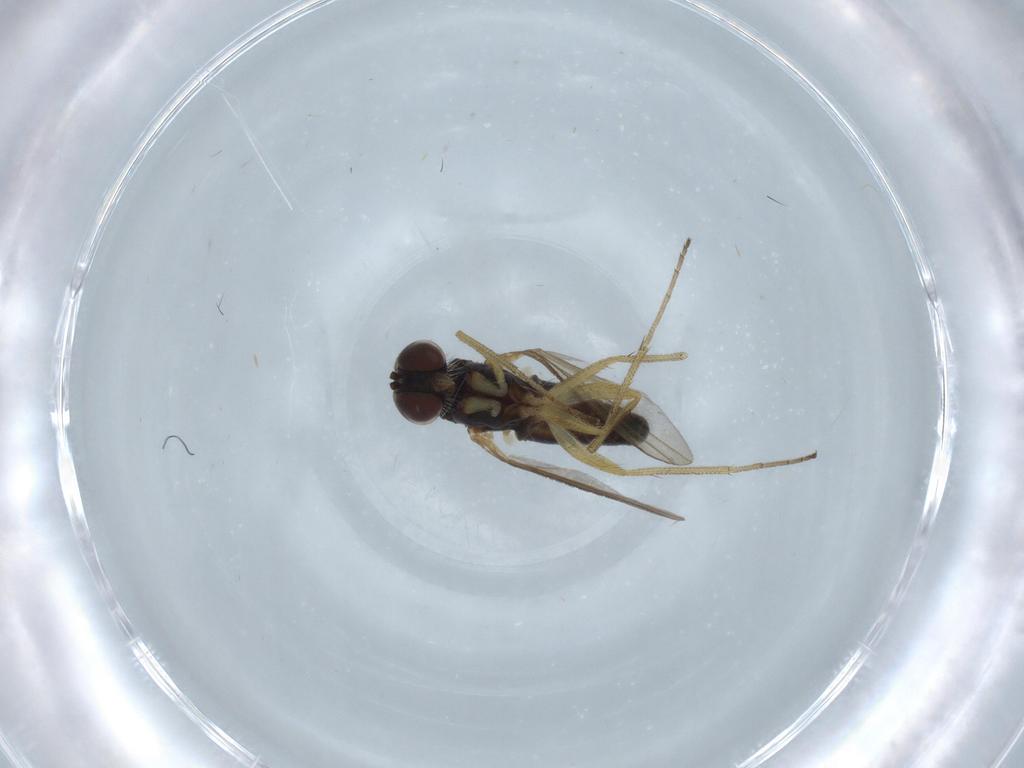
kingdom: Animalia
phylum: Arthropoda
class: Insecta
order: Diptera
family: Dolichopodidae
